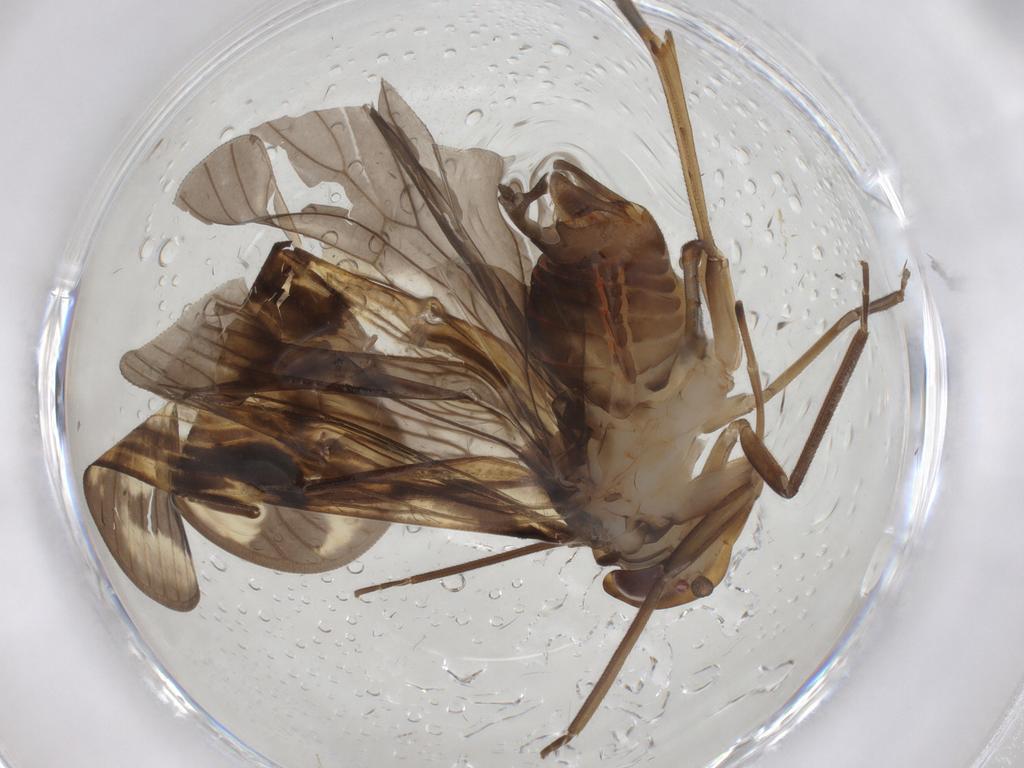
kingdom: Animalia
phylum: Arthropoda
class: Insecta
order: Hemiptera
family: Cicadellidae
